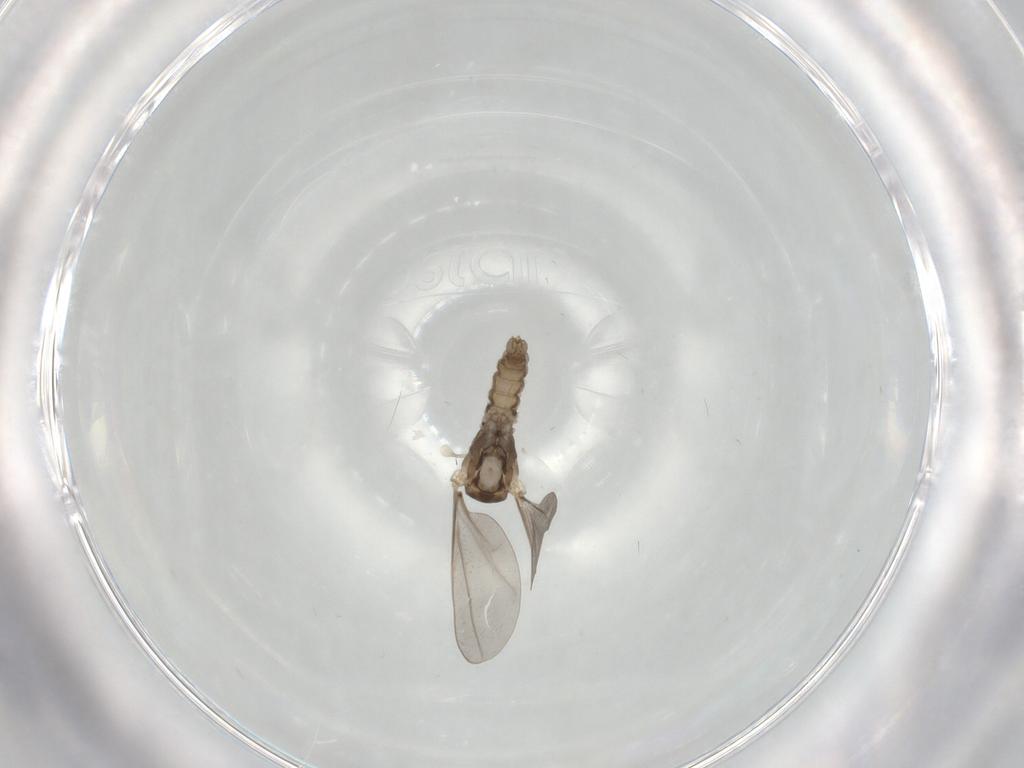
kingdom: Animalia
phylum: Arthropoda
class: Insecta
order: Diptera
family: Cecidomyiidae
